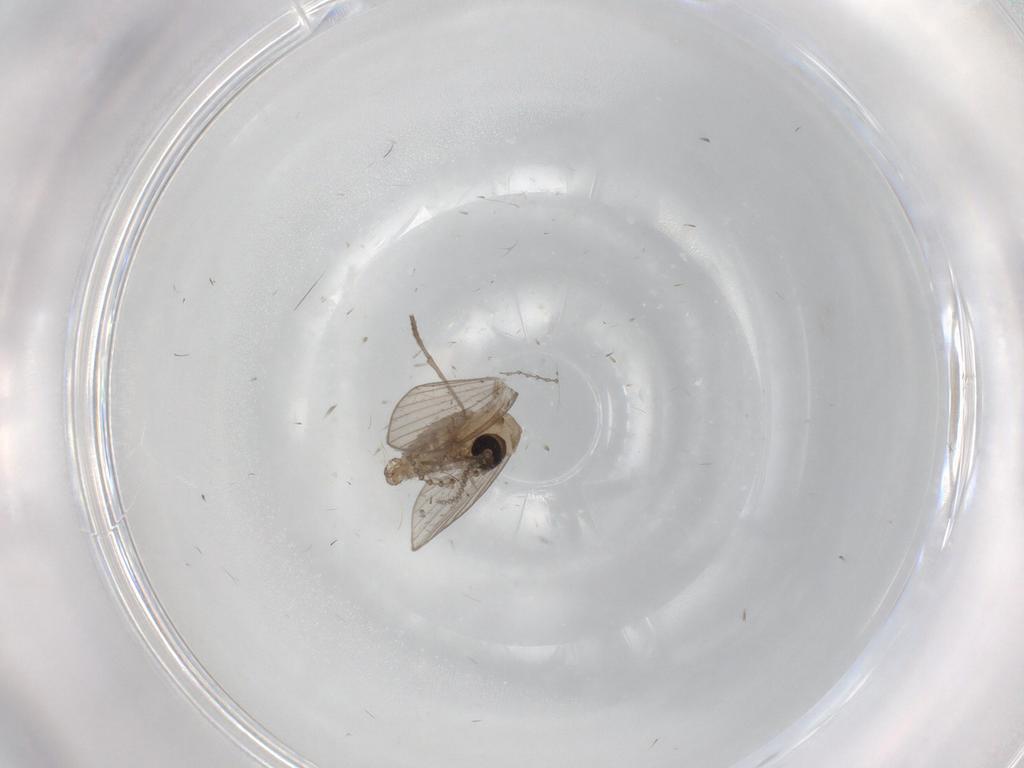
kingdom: Animalia
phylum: Arthropoda
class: Insecta
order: Diptera
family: Psychodidae
